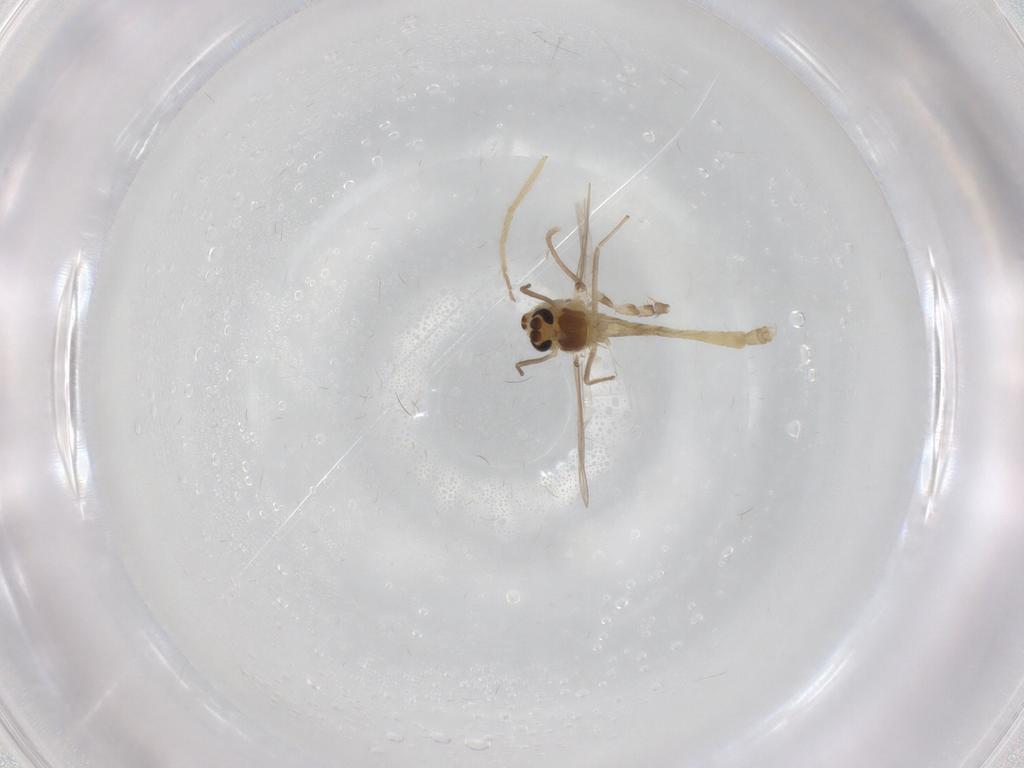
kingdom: Animalia
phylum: Arthropoda
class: Insecta
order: Diptera
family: Chironomidae
